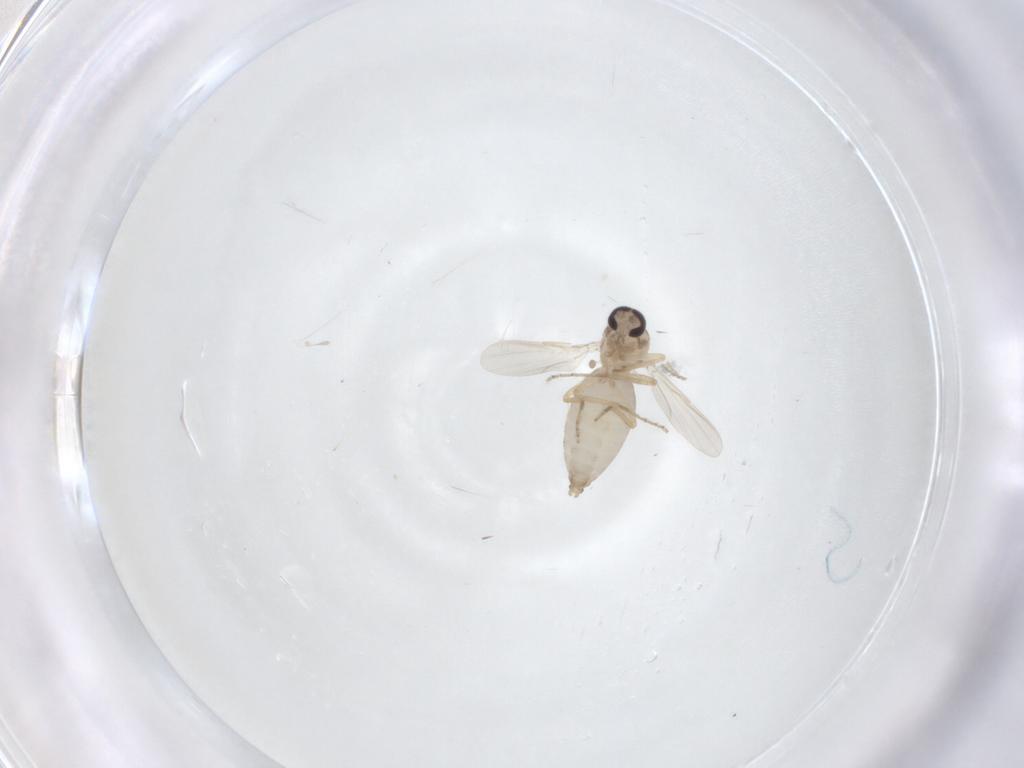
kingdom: Animalia
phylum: Arthropoda
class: Insecta
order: Diptera
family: Ceratopogonidae
